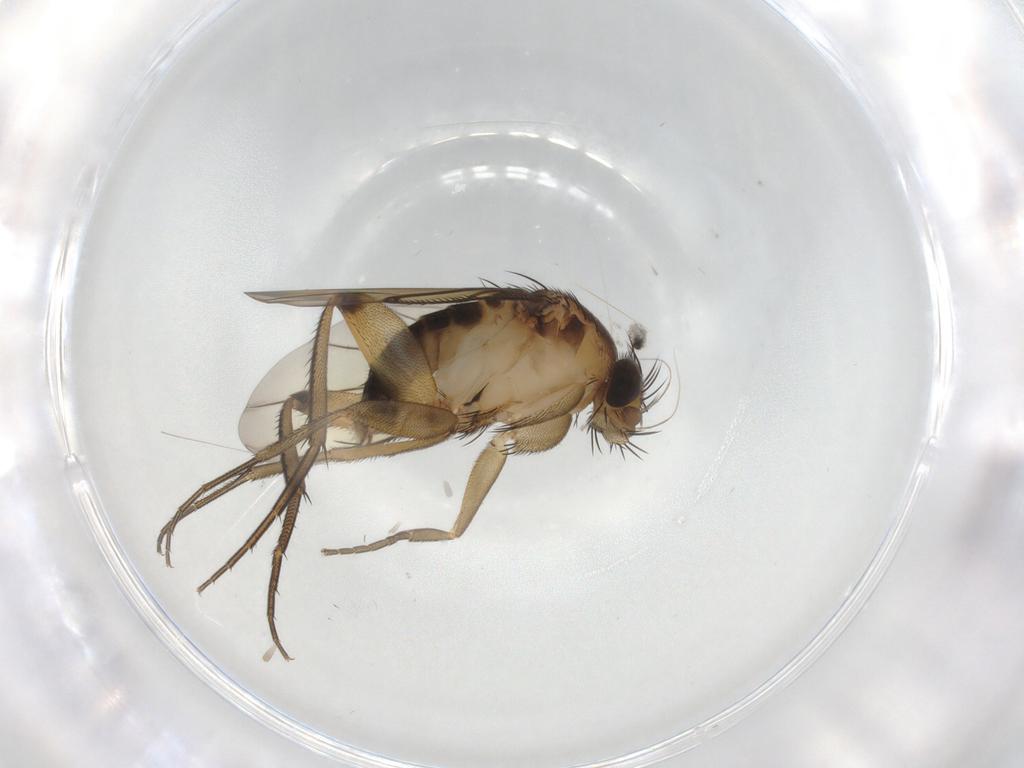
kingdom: Animalia
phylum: Arthropoda
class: Insecta
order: Diptera
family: Phoridae
